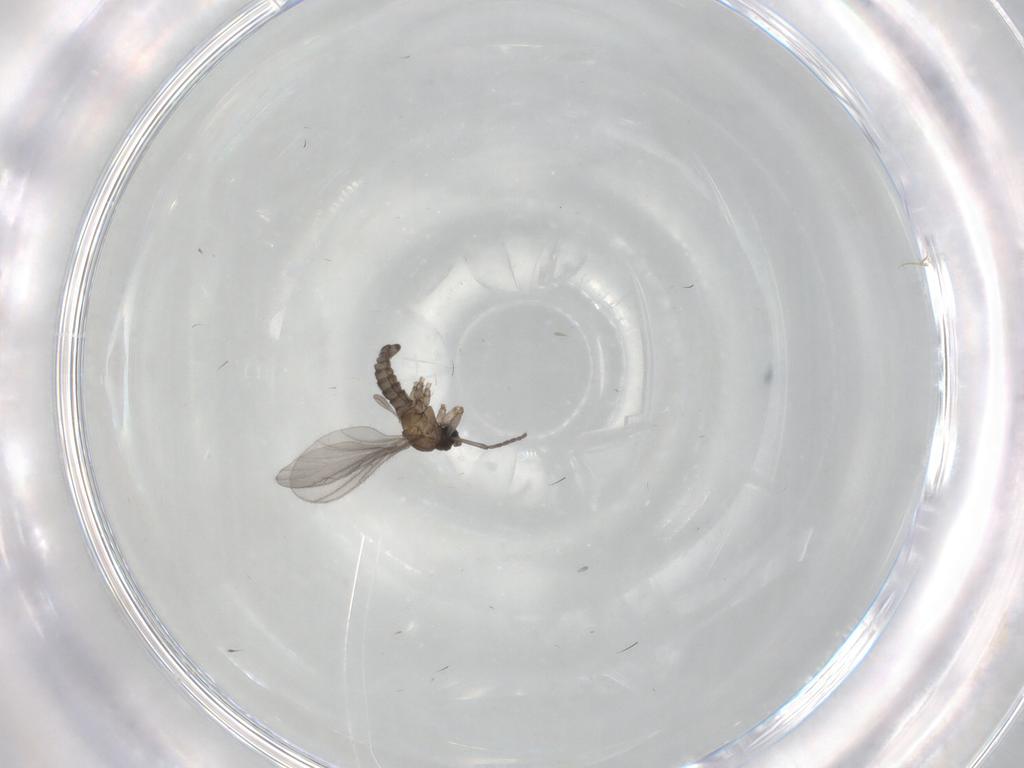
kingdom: Animalia
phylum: Arthropoda
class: Insecta
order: Diptera
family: Sciaridae
